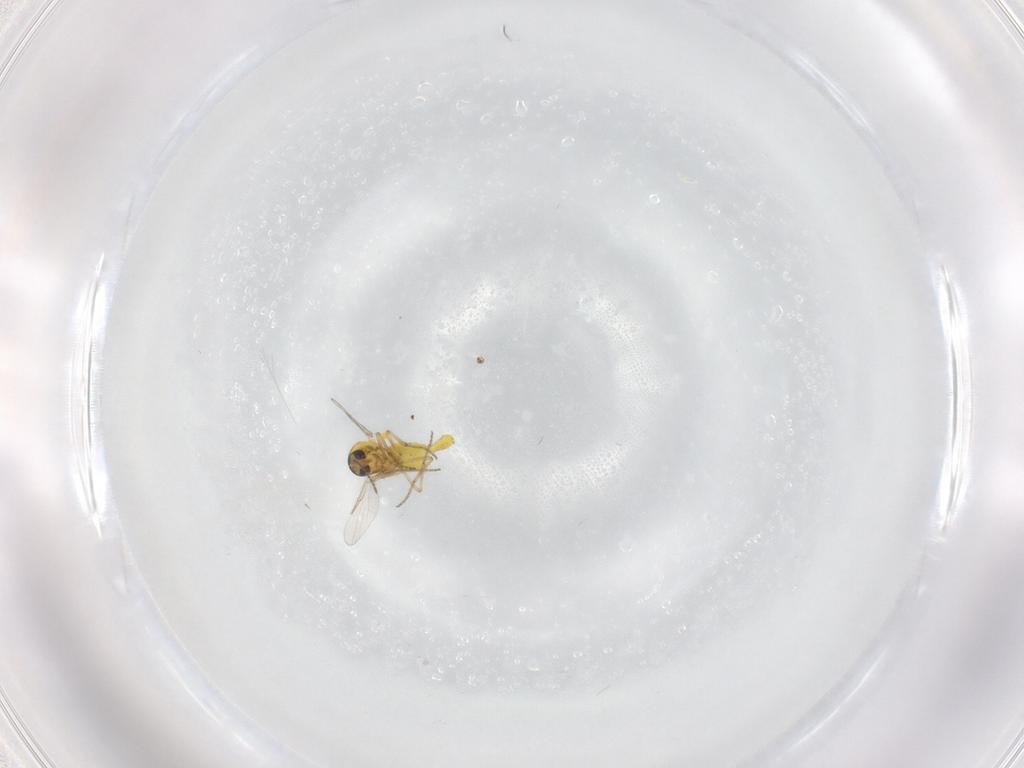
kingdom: Animalia
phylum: Arthropoda
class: Insecta
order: Diptera
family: Ceratopogonidae
